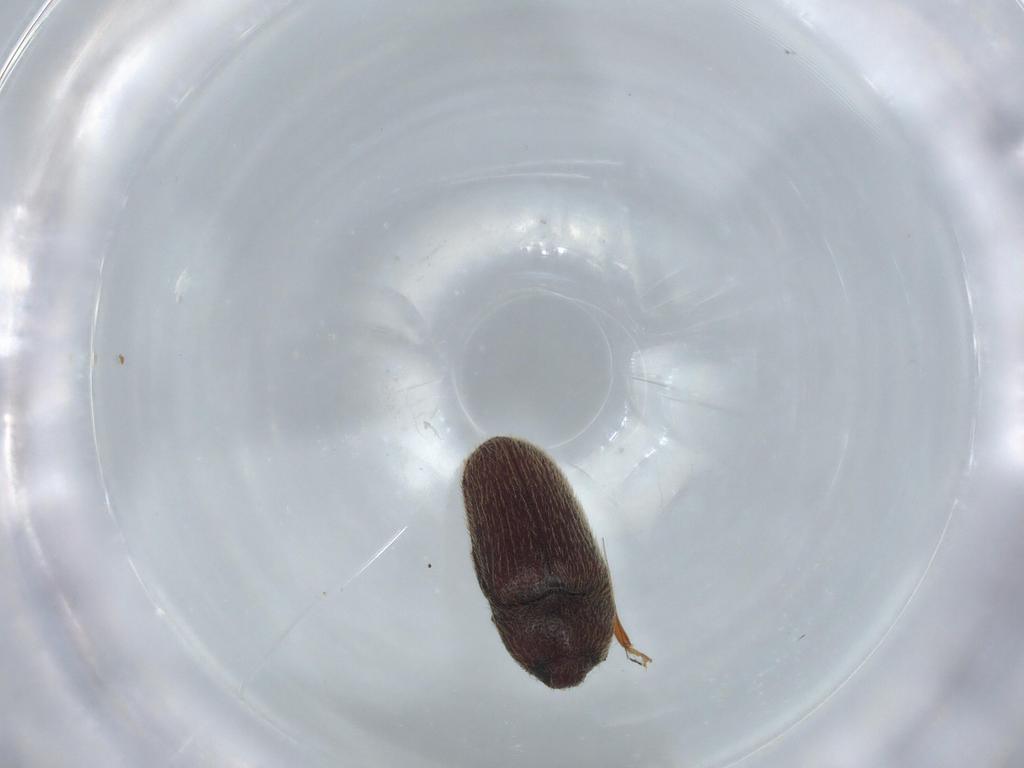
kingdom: Animalia
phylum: Arthropoda
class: Insecta
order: Coleoptera
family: Throscidae
